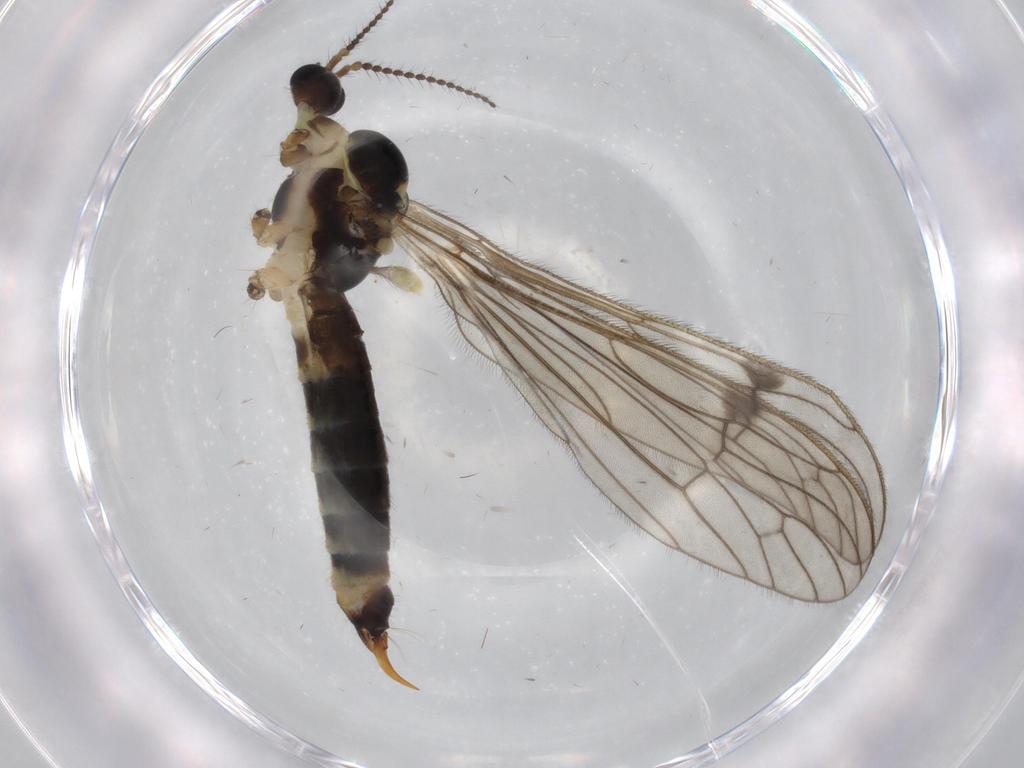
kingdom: Animalia
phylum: Arthropoda
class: Insecta
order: Diptera
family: Limoniidae
